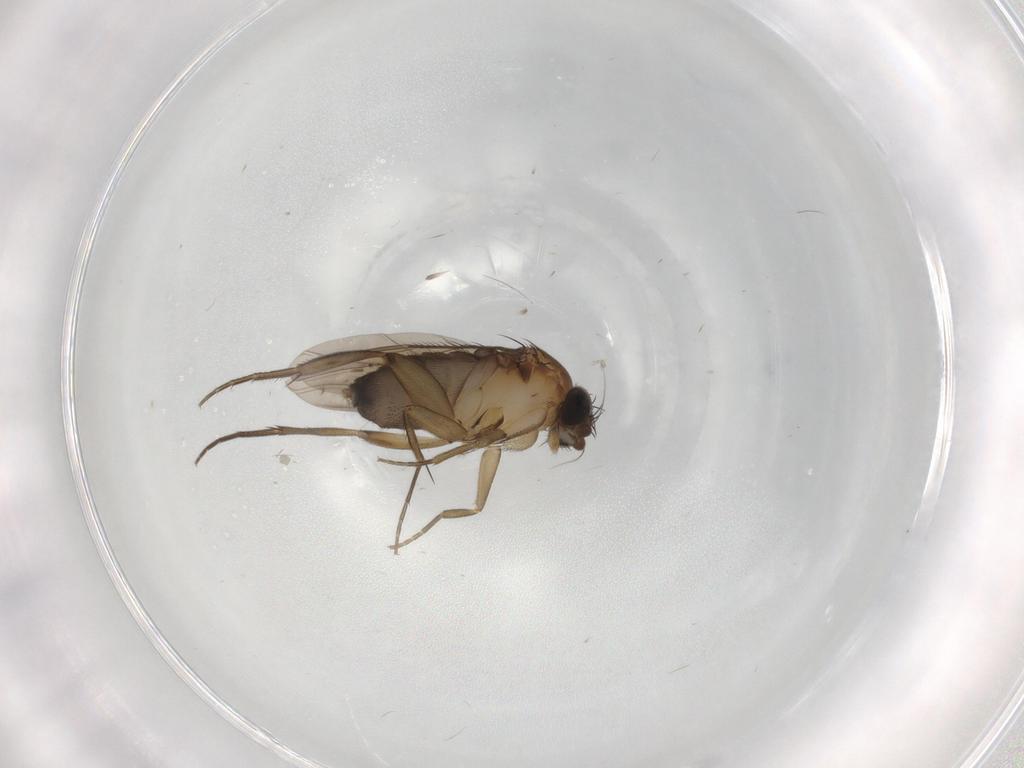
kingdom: Animalia
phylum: Arthropoda
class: Insecta
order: Diptera
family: Phoridae
